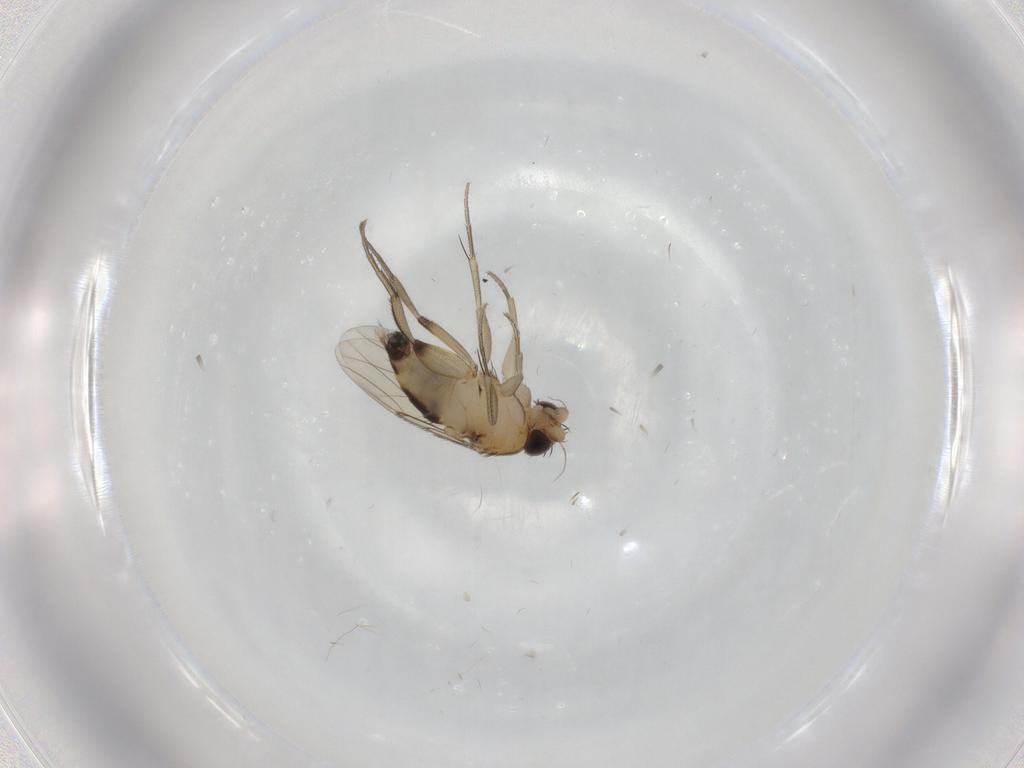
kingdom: Animalia
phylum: Arthropoda
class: Insecta
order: Diptera
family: Phoridae
